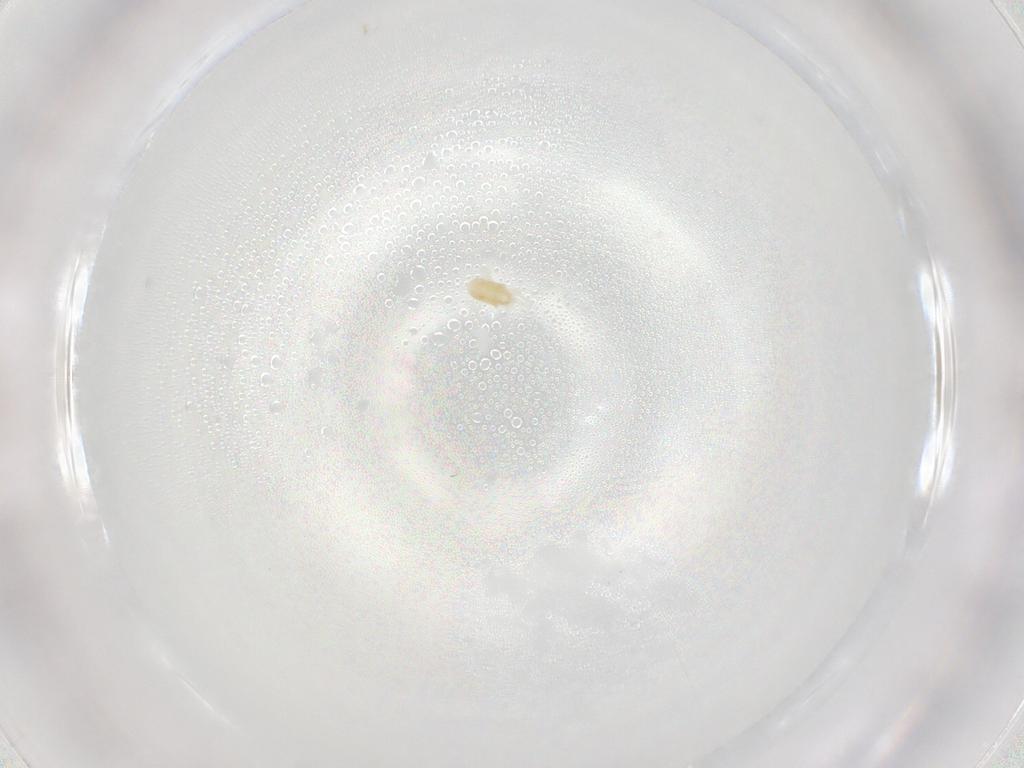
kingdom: Animalia
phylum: Arthropoda
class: Arachnida
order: Trombidiformes
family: Eupodidae
